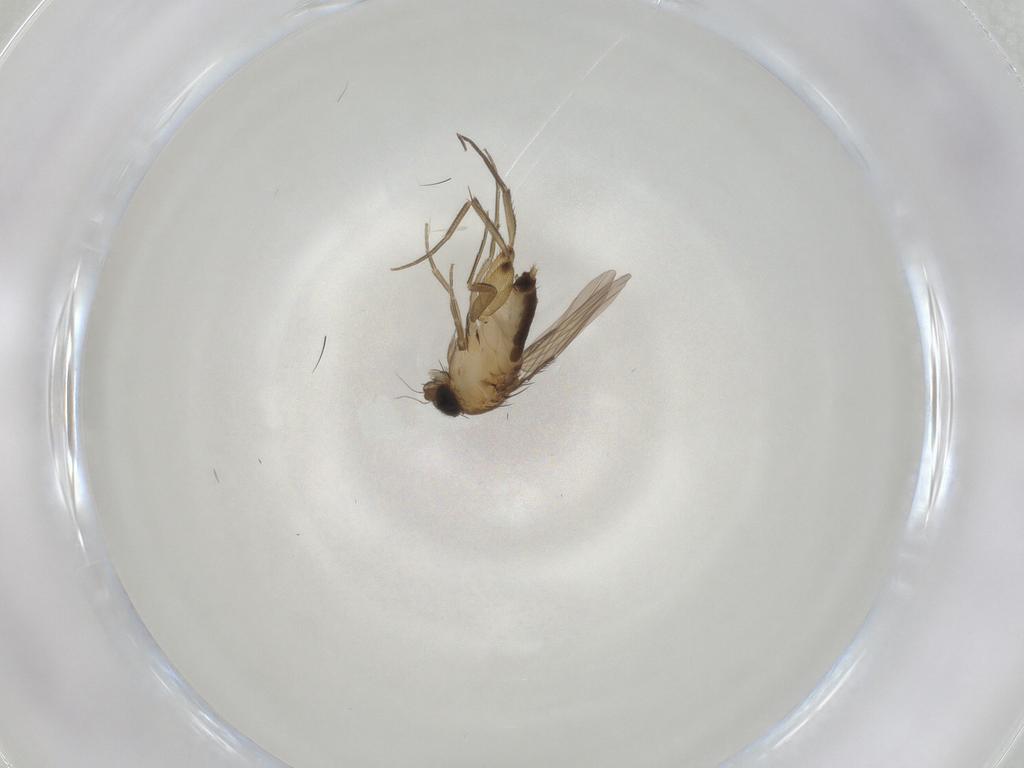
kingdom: Animalia
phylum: Arthropoda
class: Insecta
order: Diptera
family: Phoridae
